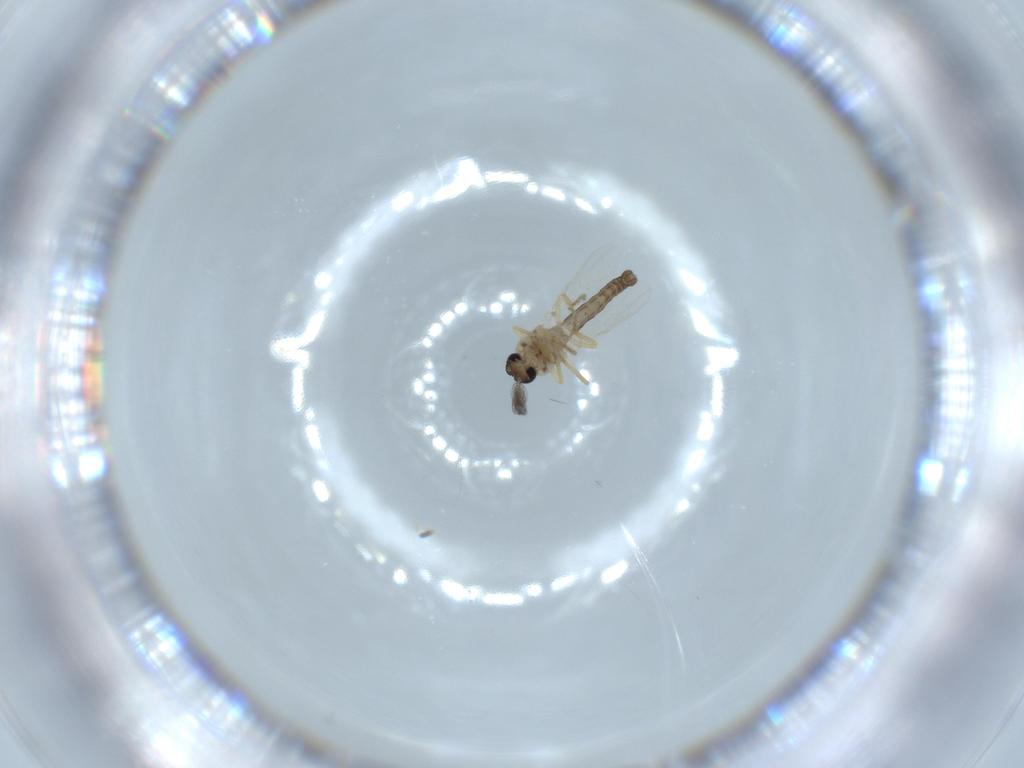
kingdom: Animalia
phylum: Arthropoda
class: Insecta
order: Diptera
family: Ceratopogonidae
